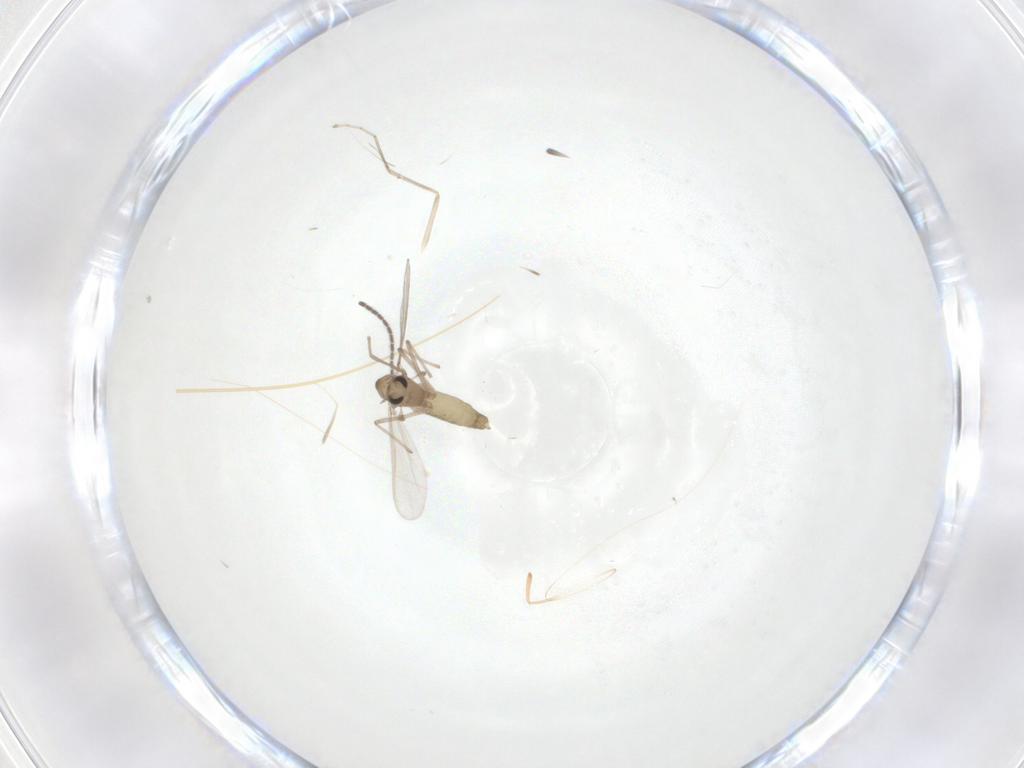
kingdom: Animalia
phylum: Arthropoda
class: Insecta
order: Diptera
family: Chironomidae
